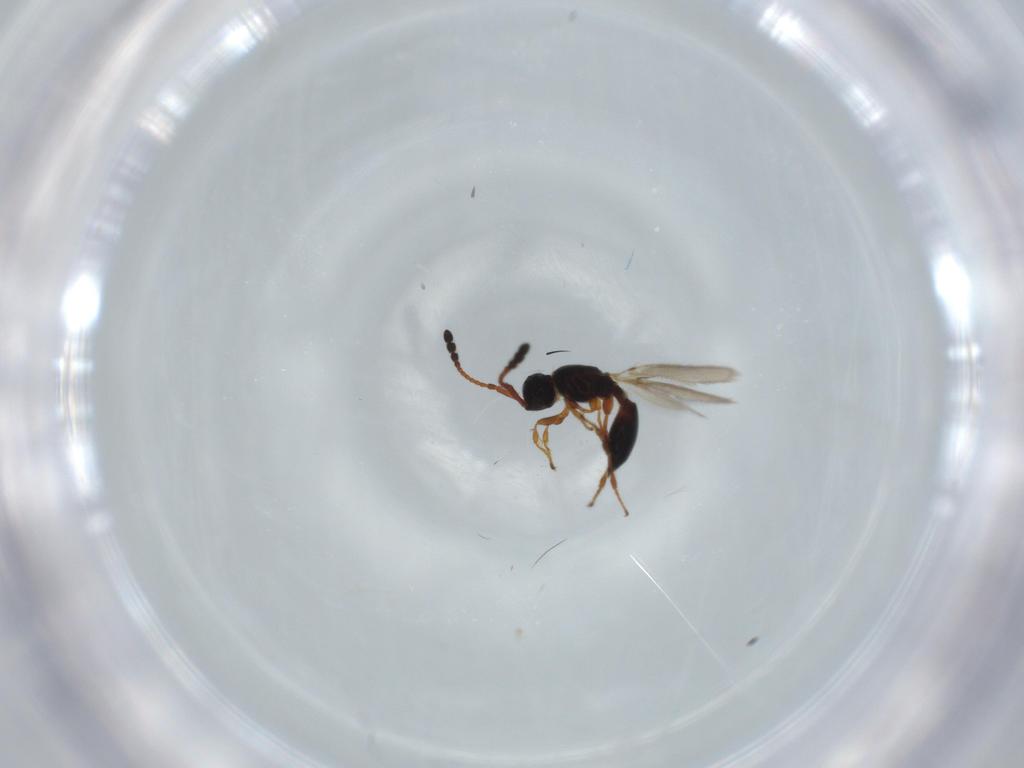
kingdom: Animalia
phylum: Arthropoda
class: Insecta
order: Hymenoptera
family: Diapriidae
